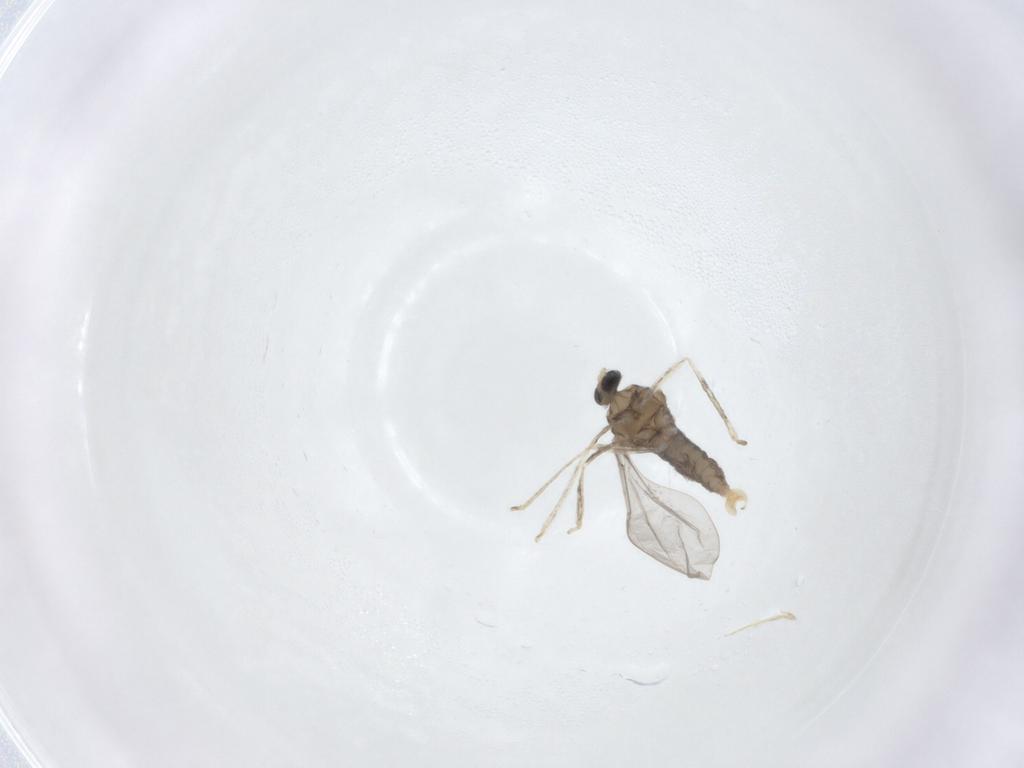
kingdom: Animalia
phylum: Arthropoda
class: Insecta
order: Diptera
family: Cecidomyiidae
